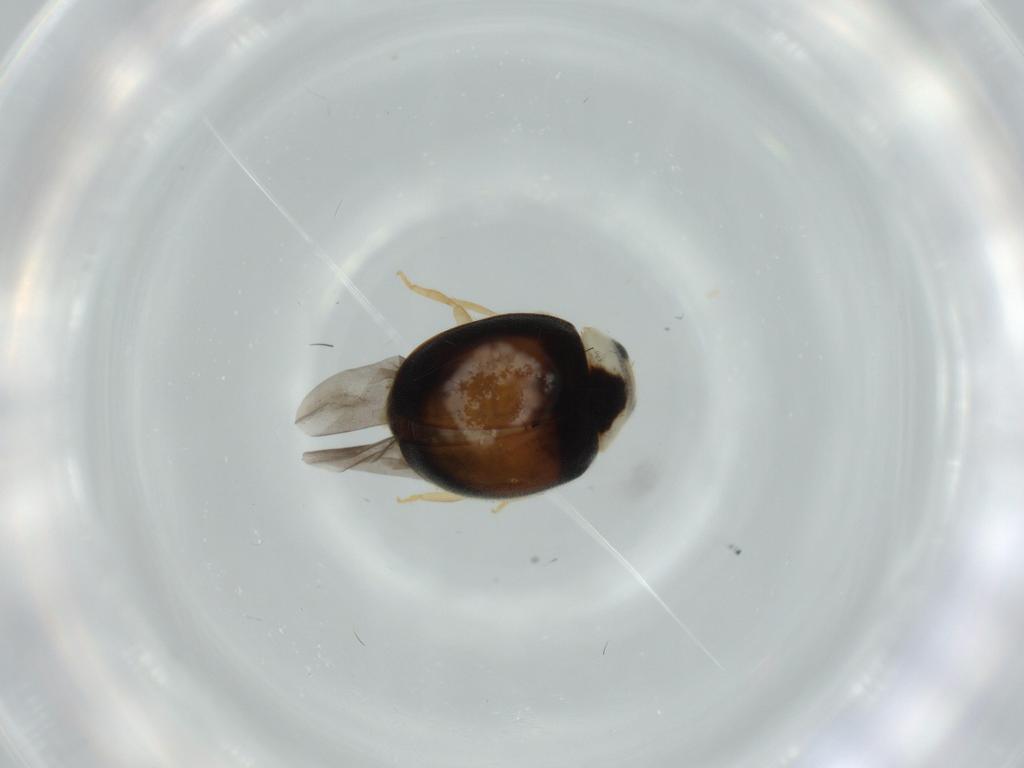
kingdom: Animalia
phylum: Arthropoda
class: Insecta
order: Coleoptera
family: Coccinellidae
